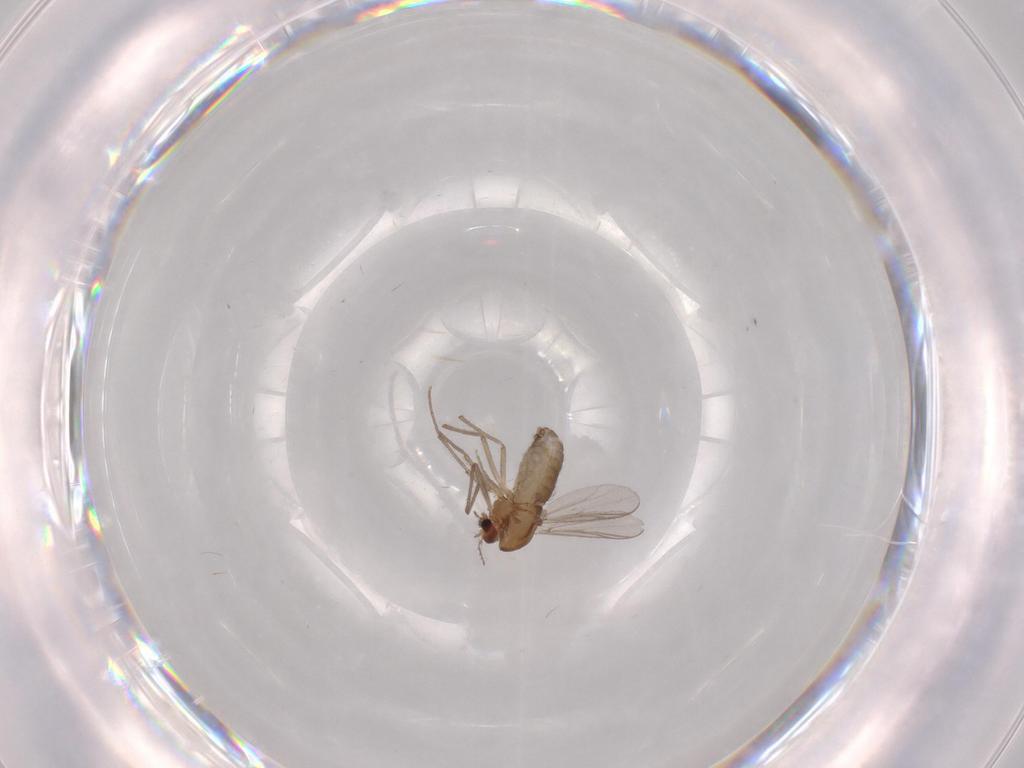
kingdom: Animalia
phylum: Arthropoda
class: Insecta
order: Diptera
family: Chironomidae
